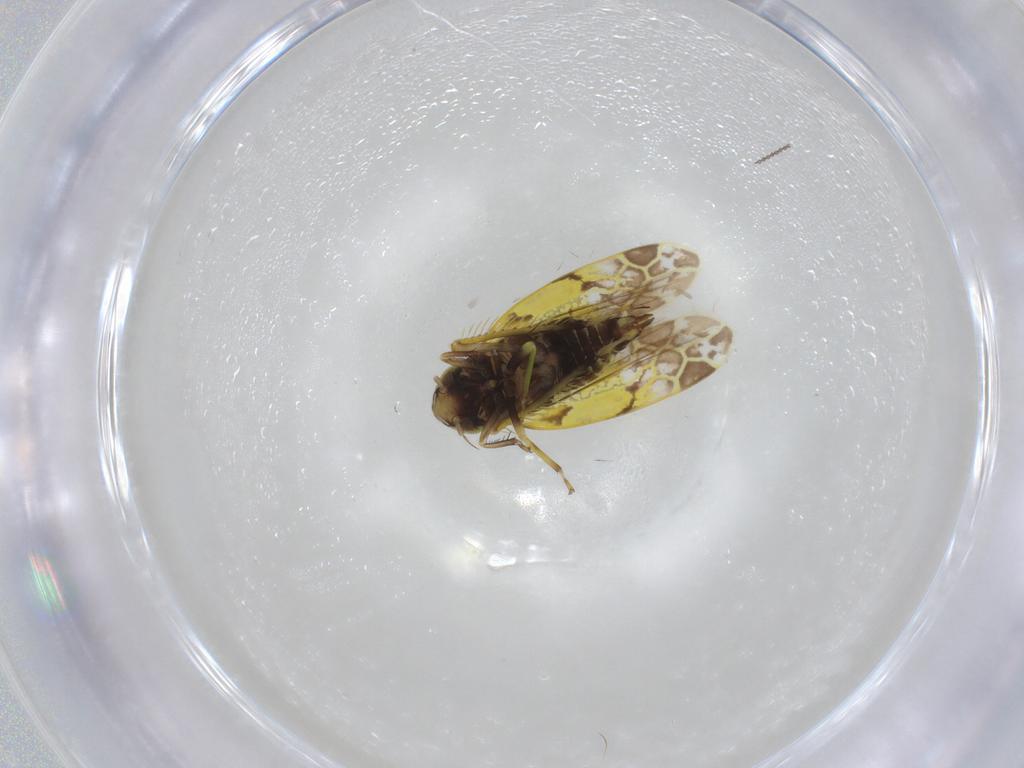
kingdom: Animalia
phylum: Arthropoda
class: Insecta
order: Hemiptera
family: Cicadellidae
